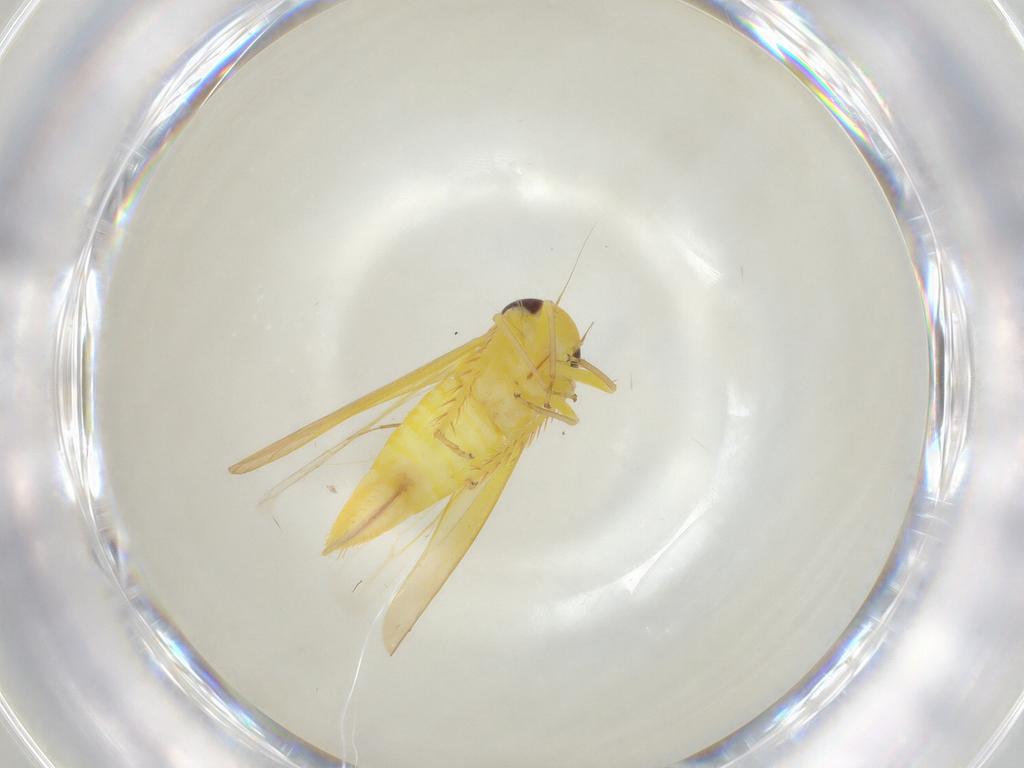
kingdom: Animalia
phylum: Arthropoda
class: Insecta
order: Hemiptera
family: Cicadellidae
